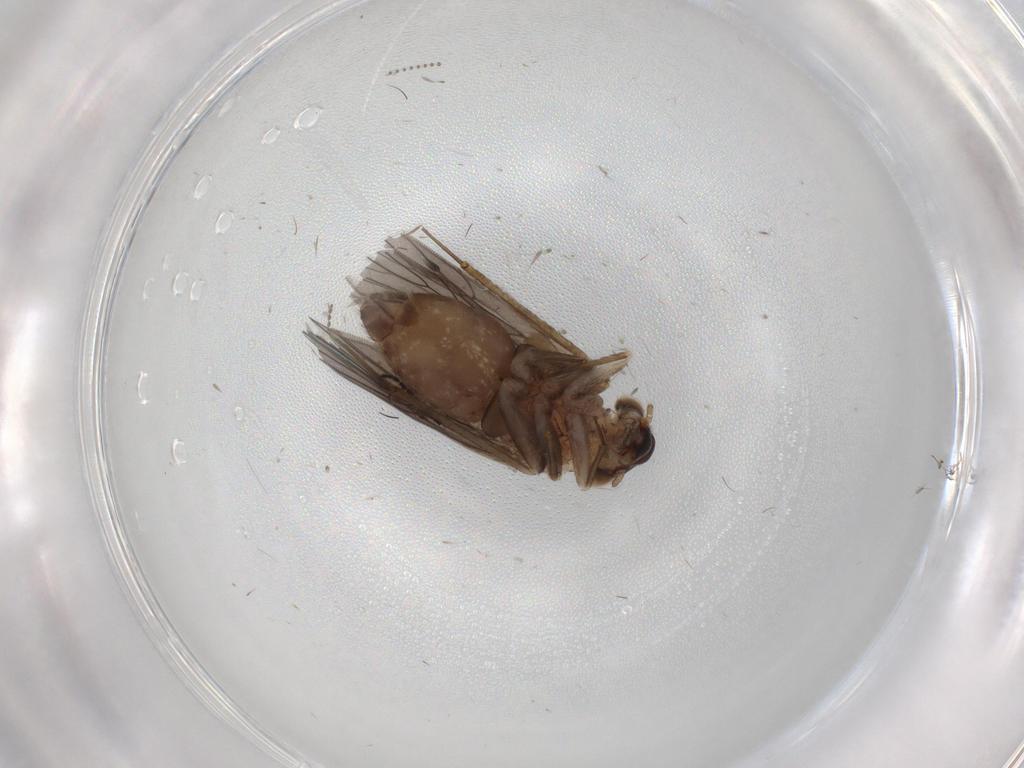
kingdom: Animalia
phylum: Arthropoda
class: Insecta
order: Psocodea
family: Lepidopsocidae
